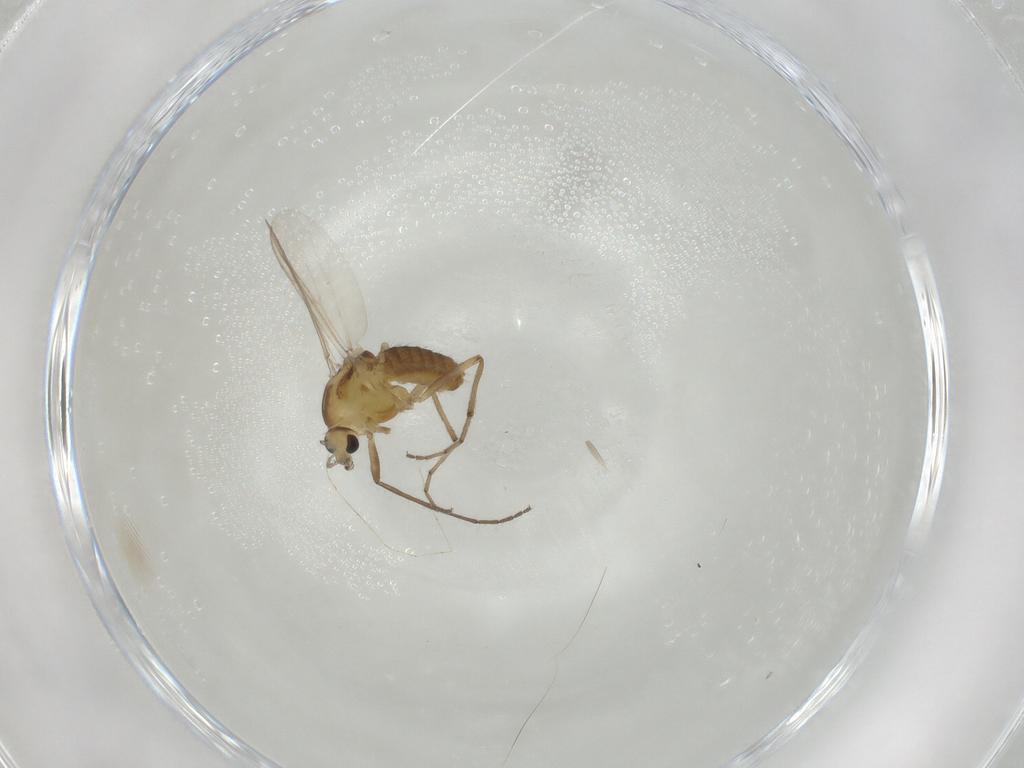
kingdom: Animalia
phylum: Arthropoda
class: Insecta
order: Diptera
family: Chironomidae
